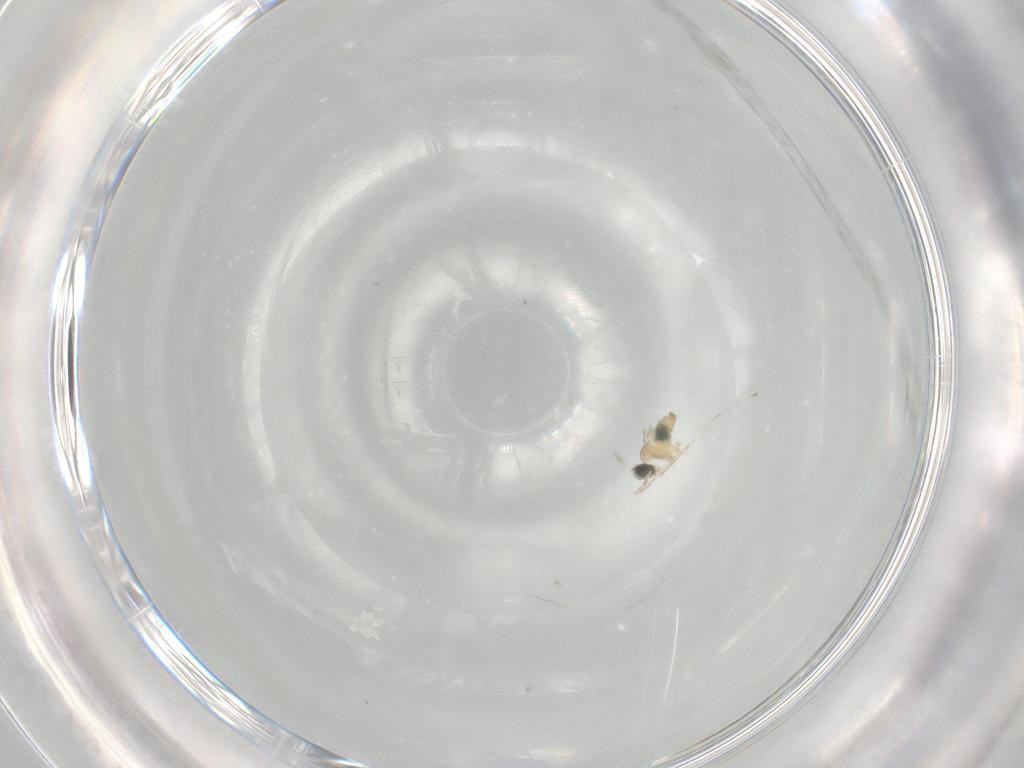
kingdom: Animalia
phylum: Arthropoda
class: Insecta
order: Diptera
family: Cecidomyiidae
